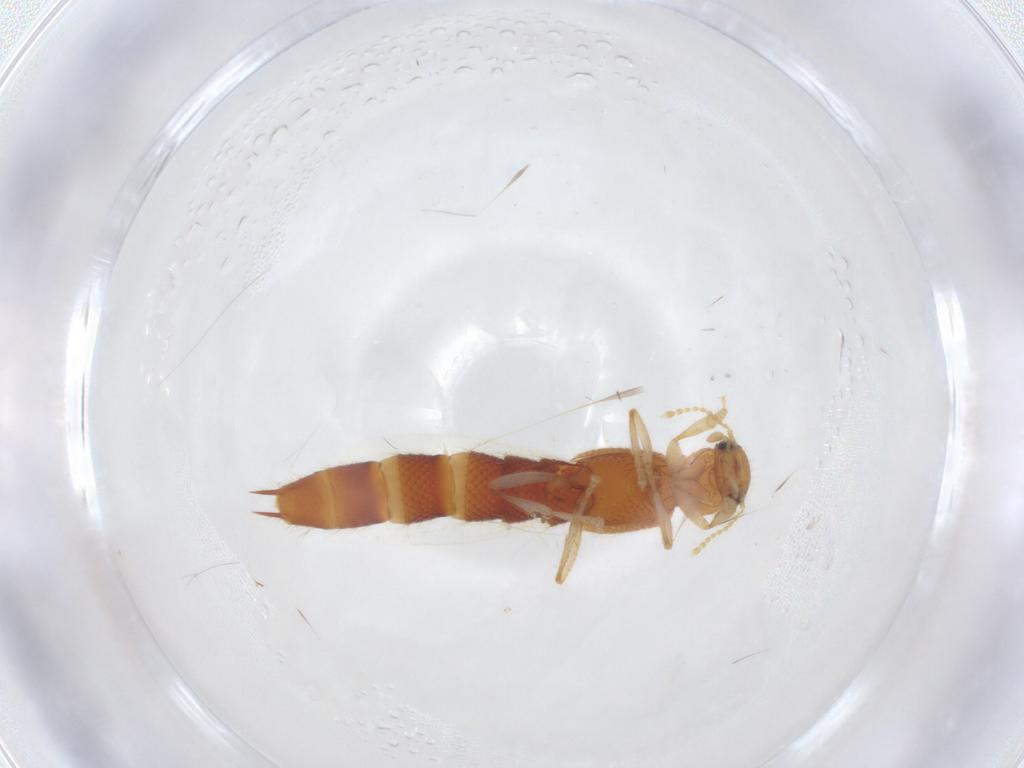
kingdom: Animalia
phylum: Arthropoda
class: Insecta
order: Coleoptera
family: Staphylinidae
